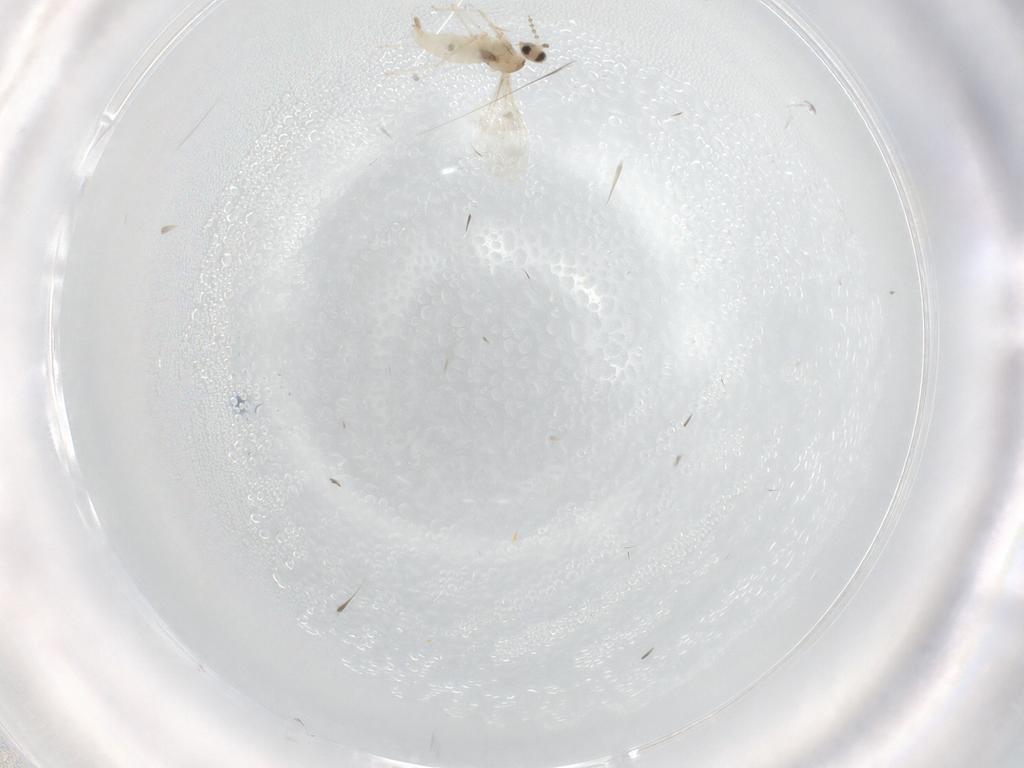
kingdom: Animalia
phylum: Arthropoda
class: Insecta
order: Diptera
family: Cecidomyiidae
